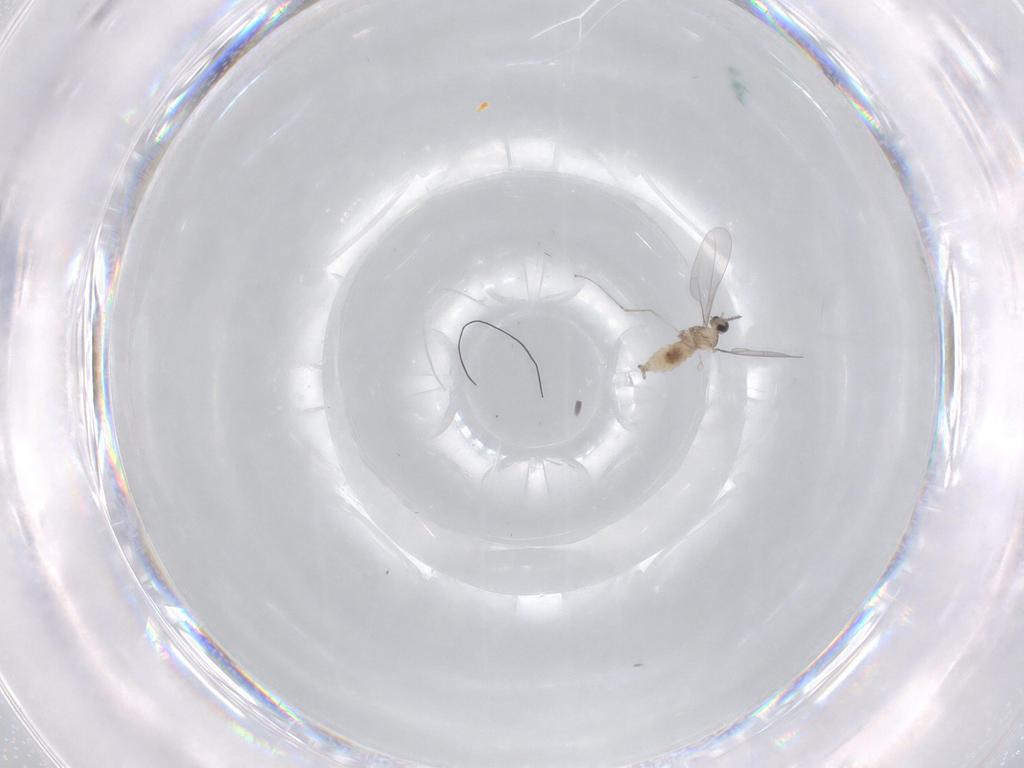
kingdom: Animalia
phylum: Arthropoda
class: Insecta
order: Diptera
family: Cecidomyiidae
